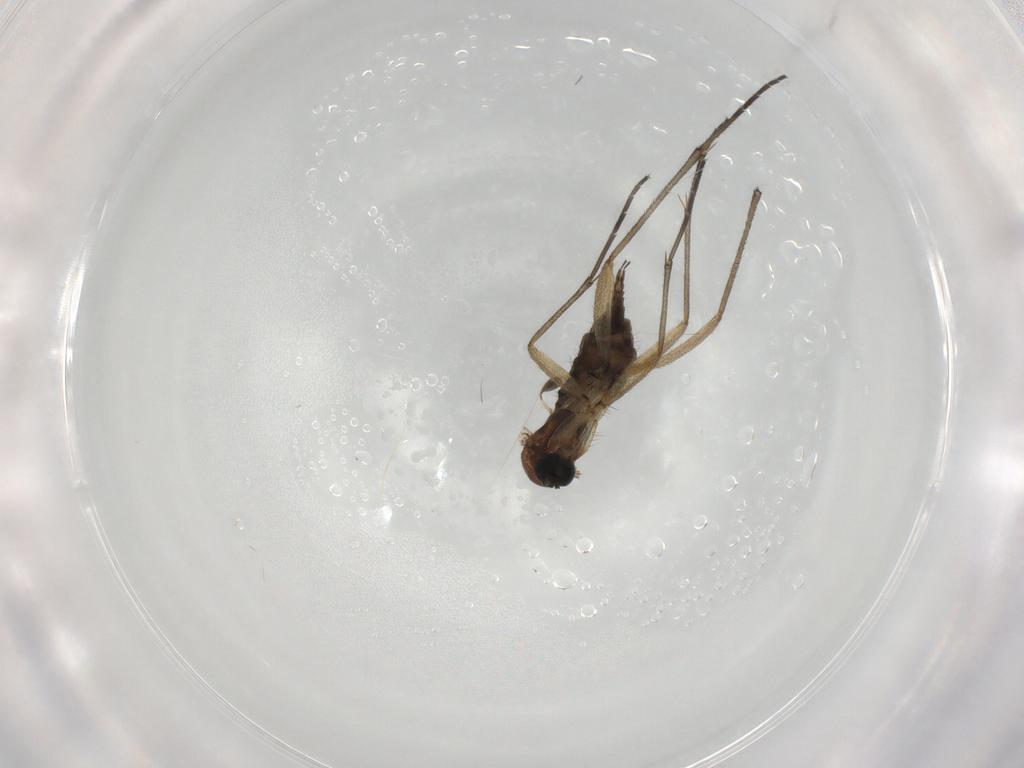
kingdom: Animalia
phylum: Arthropoda
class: Insecta
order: Diptera
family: Sciaridae
